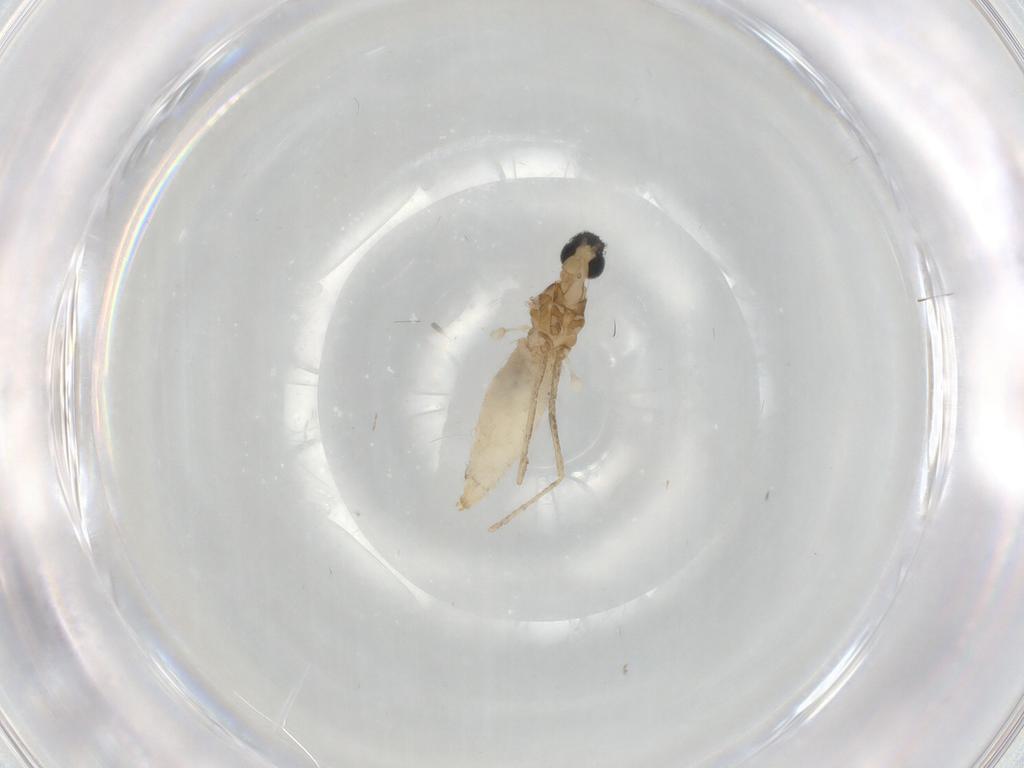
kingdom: Animalia
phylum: Arthropoda
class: Insecta
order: Diptera
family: Cecidomyiidae
